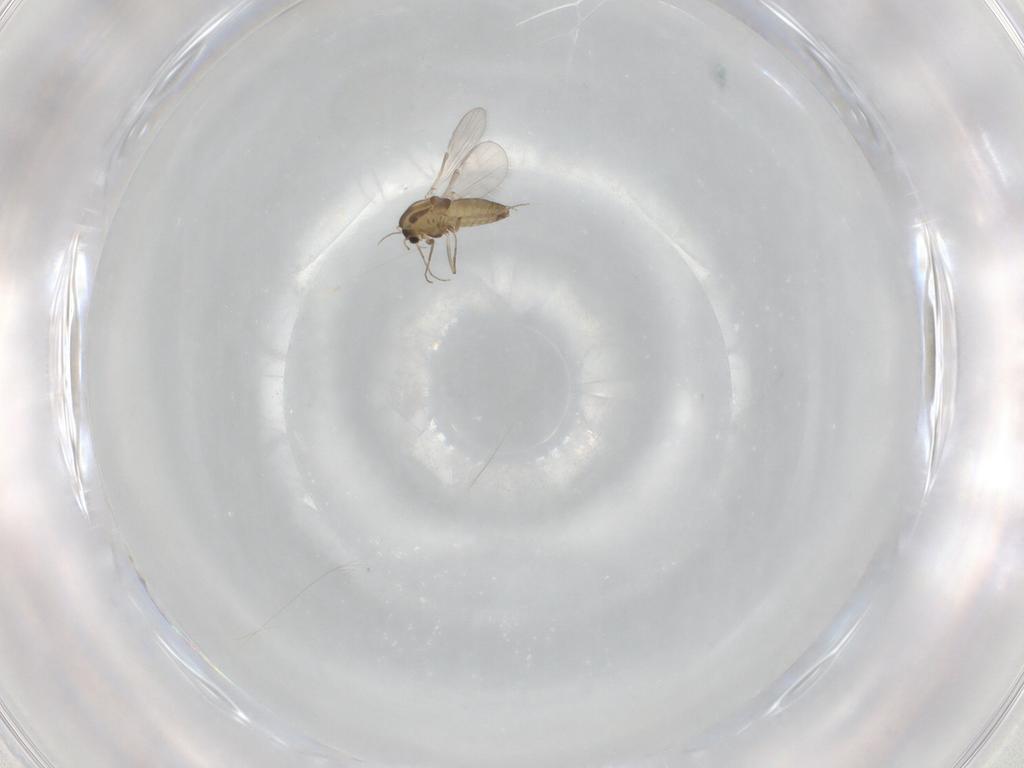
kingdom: Animalia
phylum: Arthropoda
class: Insecta
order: Diptera
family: Chironomidae
